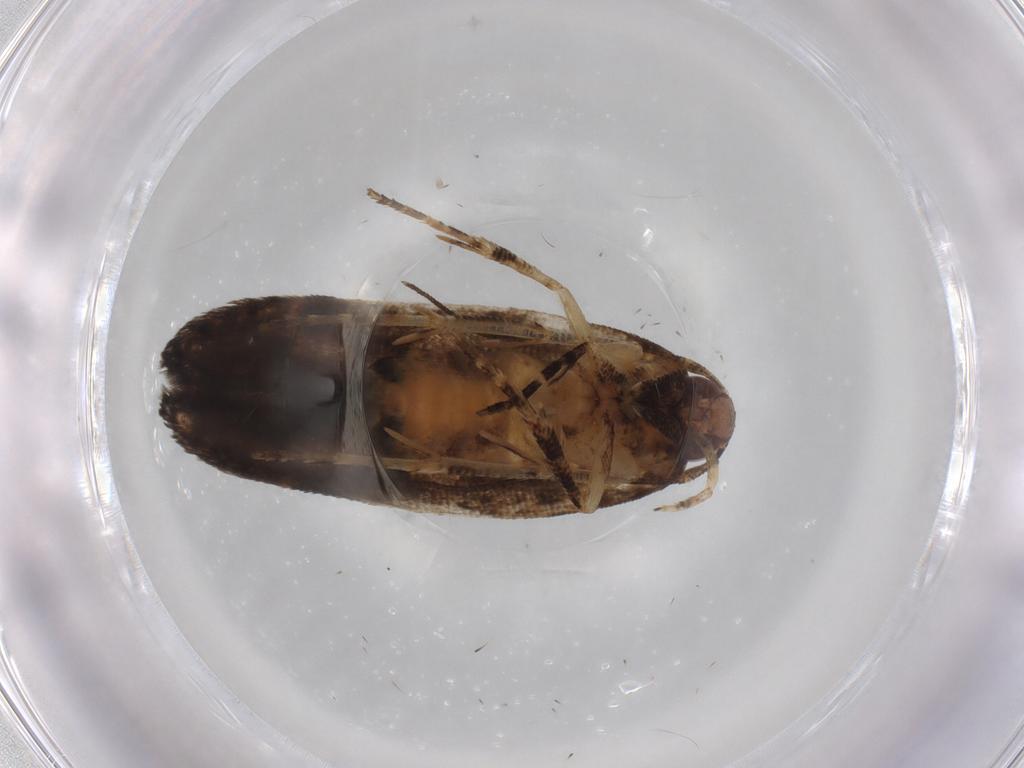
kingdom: Animalia
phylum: Arthropoda
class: Insecta
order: Lepidoptera
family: Elachistidae
